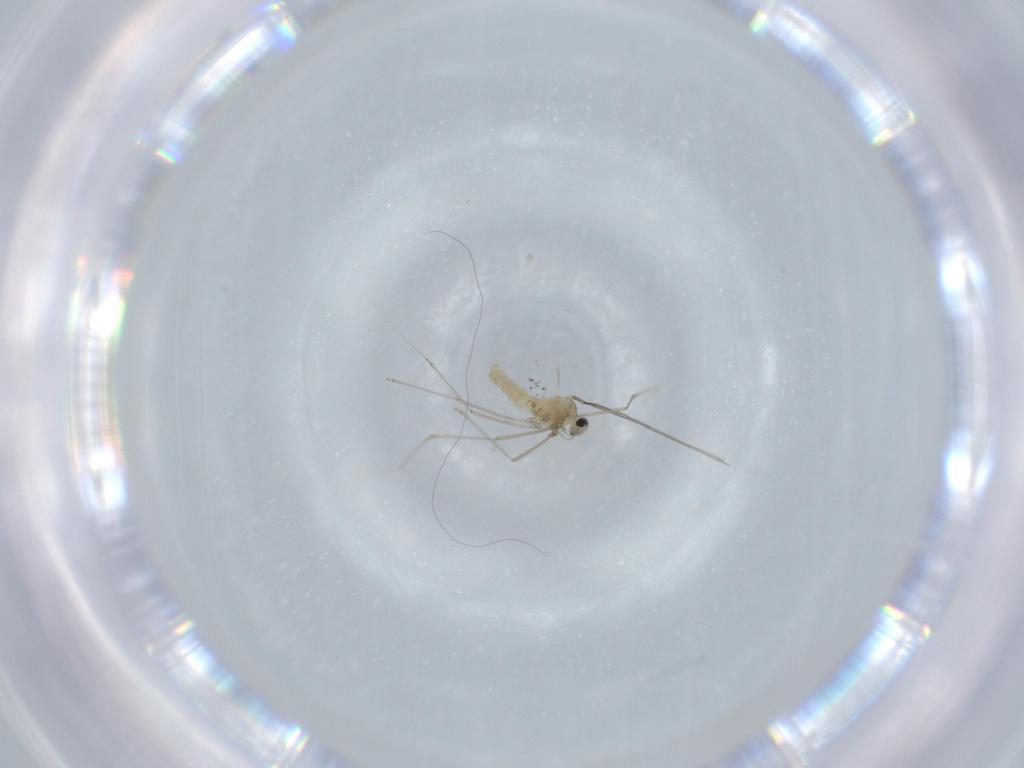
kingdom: Animalia
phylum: Arthropoda
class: Insecta
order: Diptera
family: Cecidomyiidae
